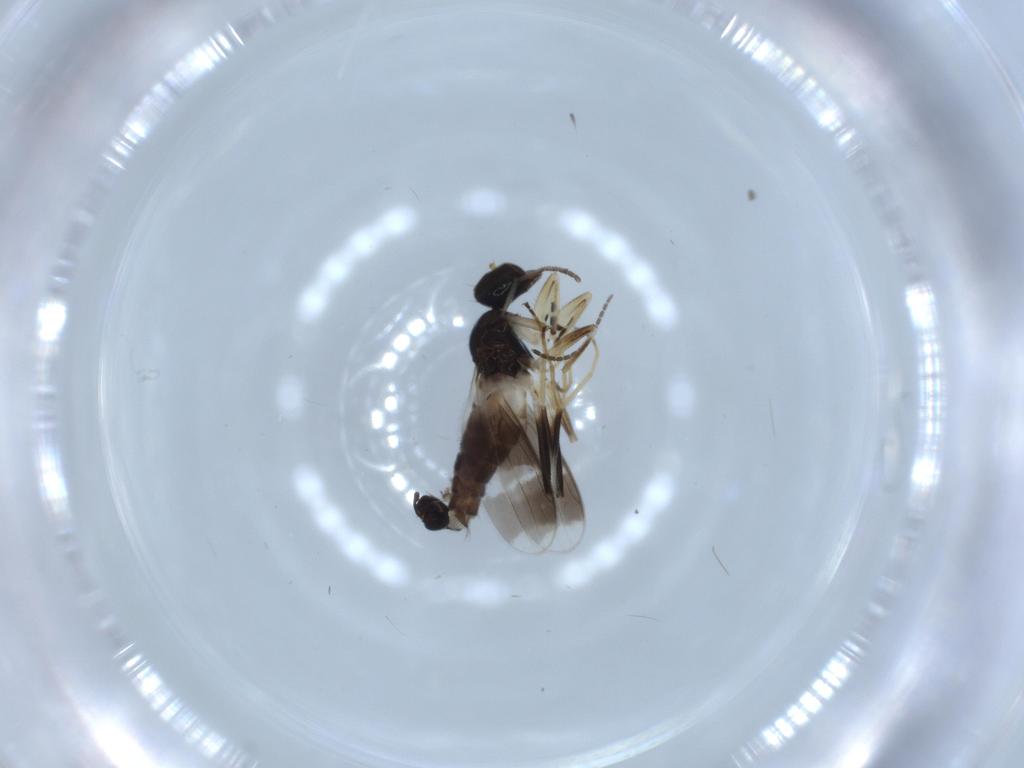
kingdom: Animalia
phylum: Arthropoda
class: Insecta
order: Diptera
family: Hybotidae
